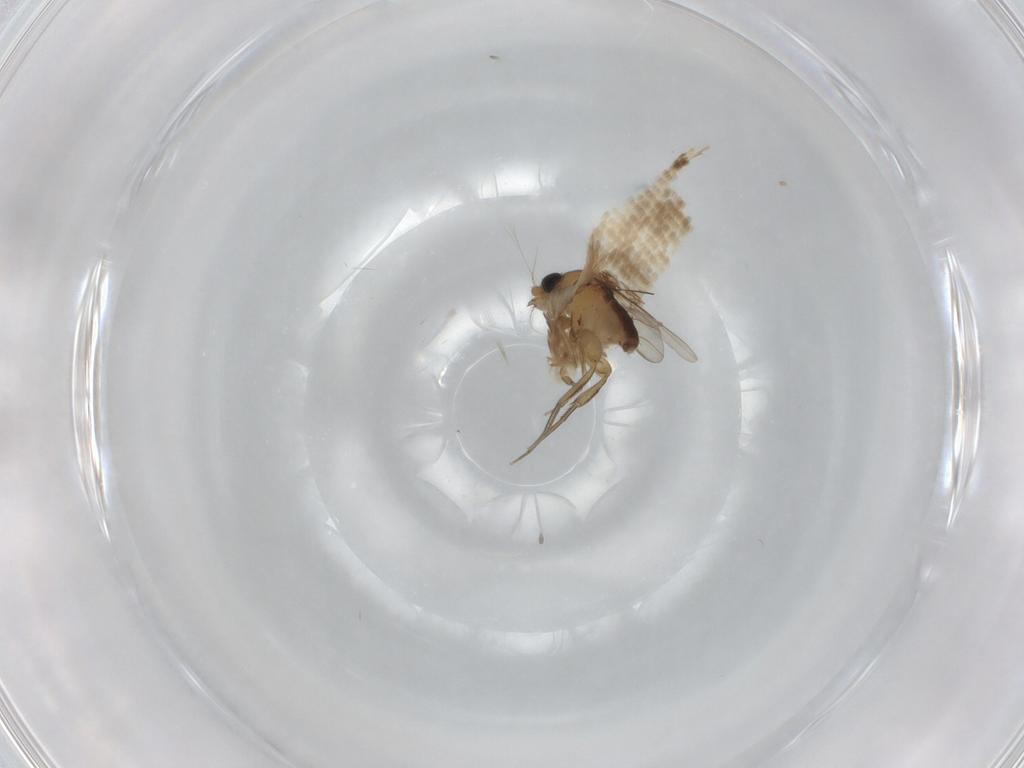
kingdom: Animalia
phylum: Arthropoda
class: Insecta
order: Diptera
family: Sciaridae
